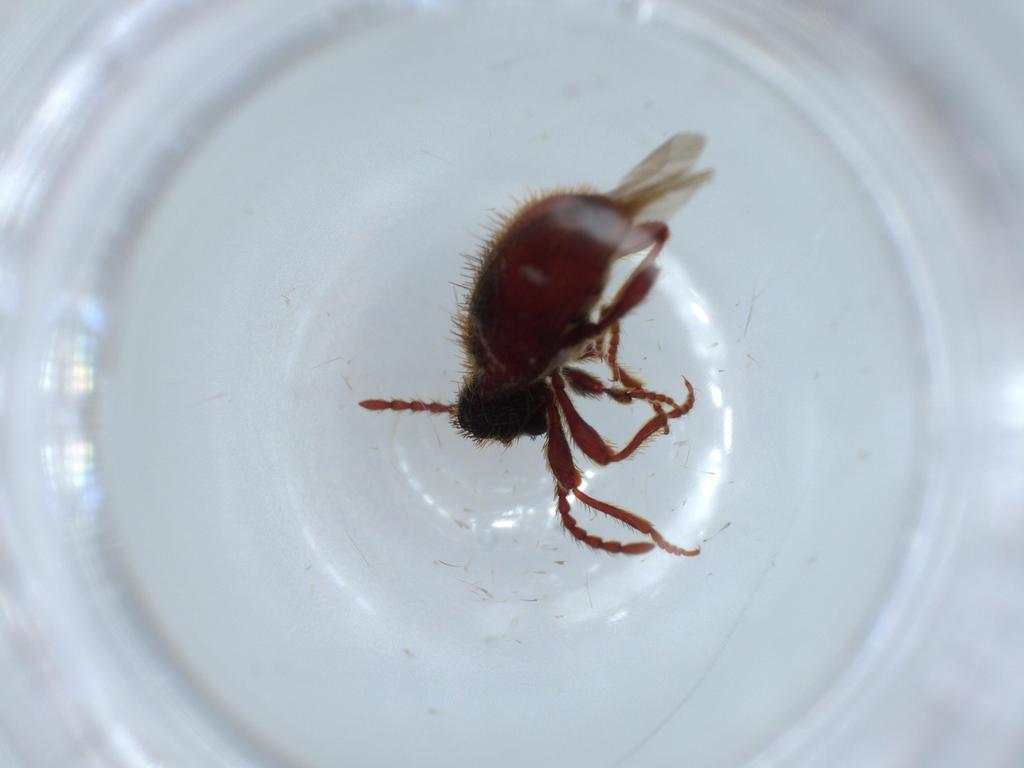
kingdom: Animalia
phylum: Arthropoda
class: Insecta
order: Coleoptera
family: Ptinidae
